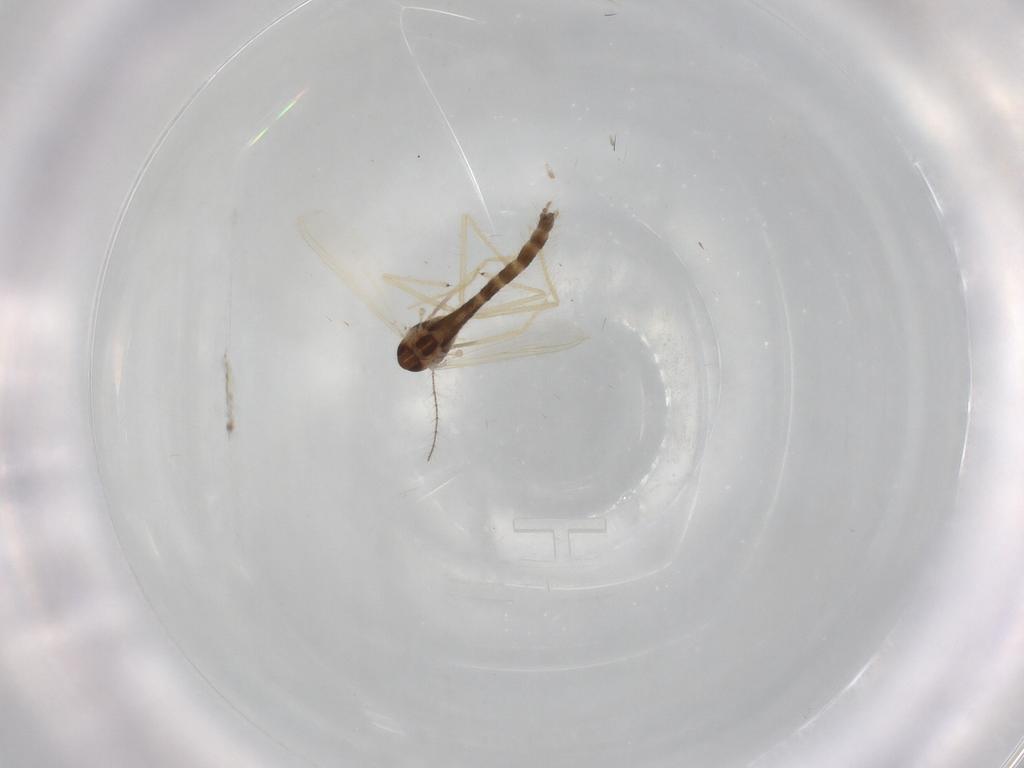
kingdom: Animalia
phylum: Arthropoda
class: Insecta
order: Diptera
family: Chironomidae
